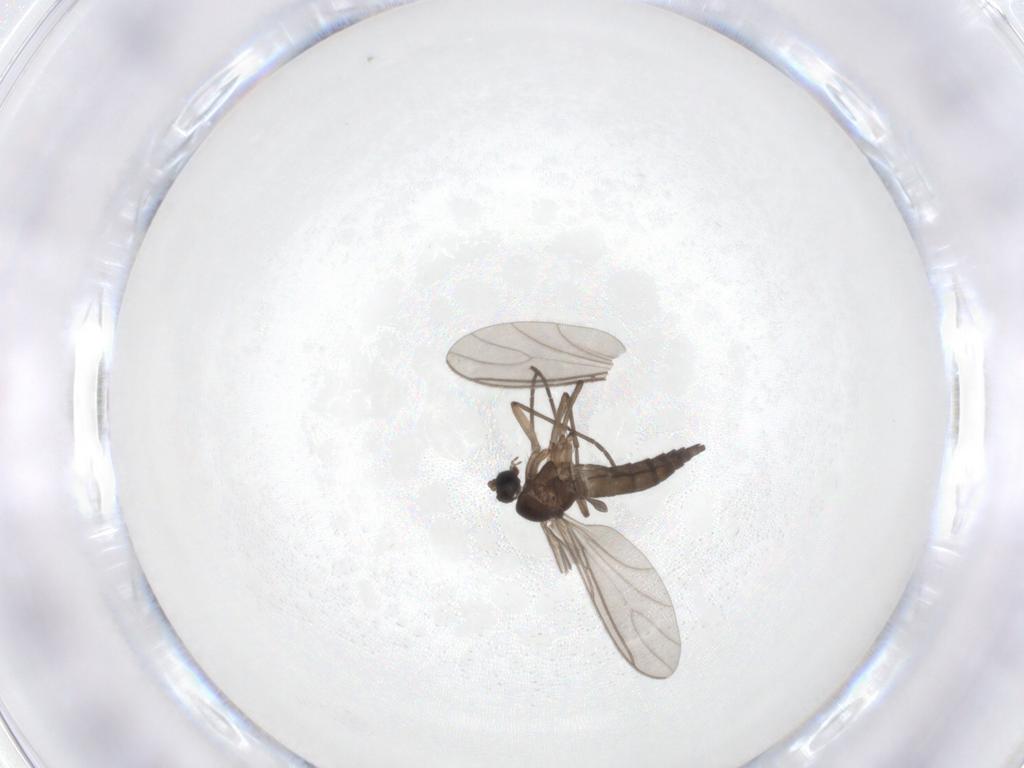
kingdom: Animalia
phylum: Arthropoda
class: Insecta
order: Diptera
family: Sciaridae
